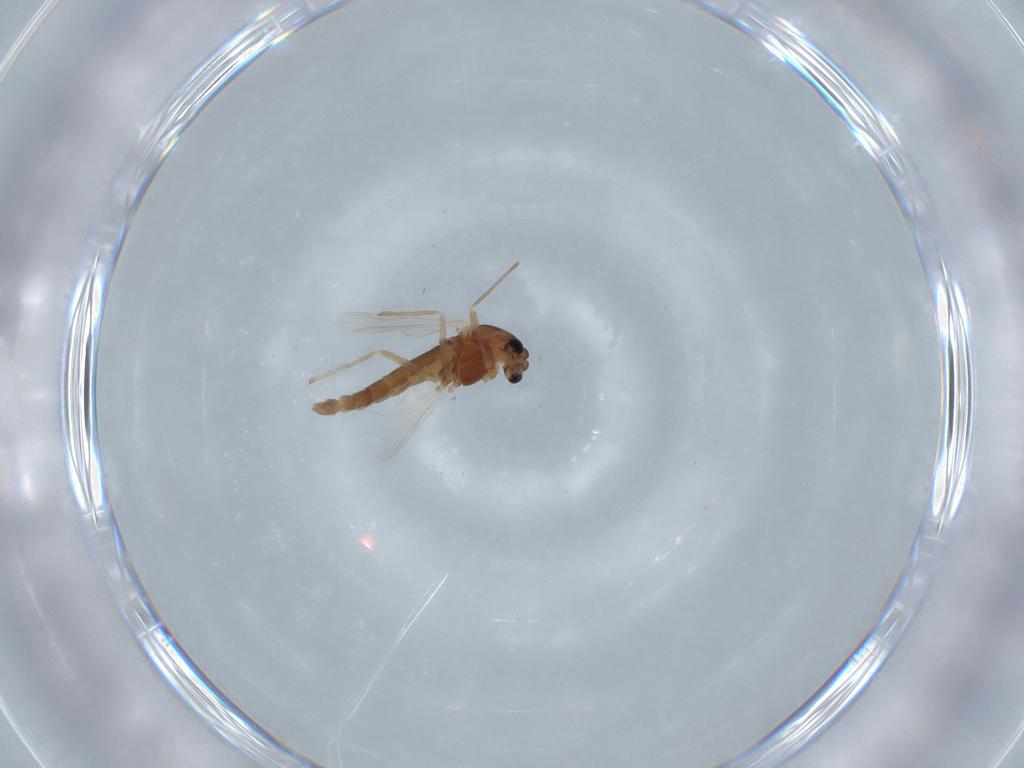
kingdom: Animalia
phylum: Arthropoda
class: Insecta
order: Diptera
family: Chironomidae
